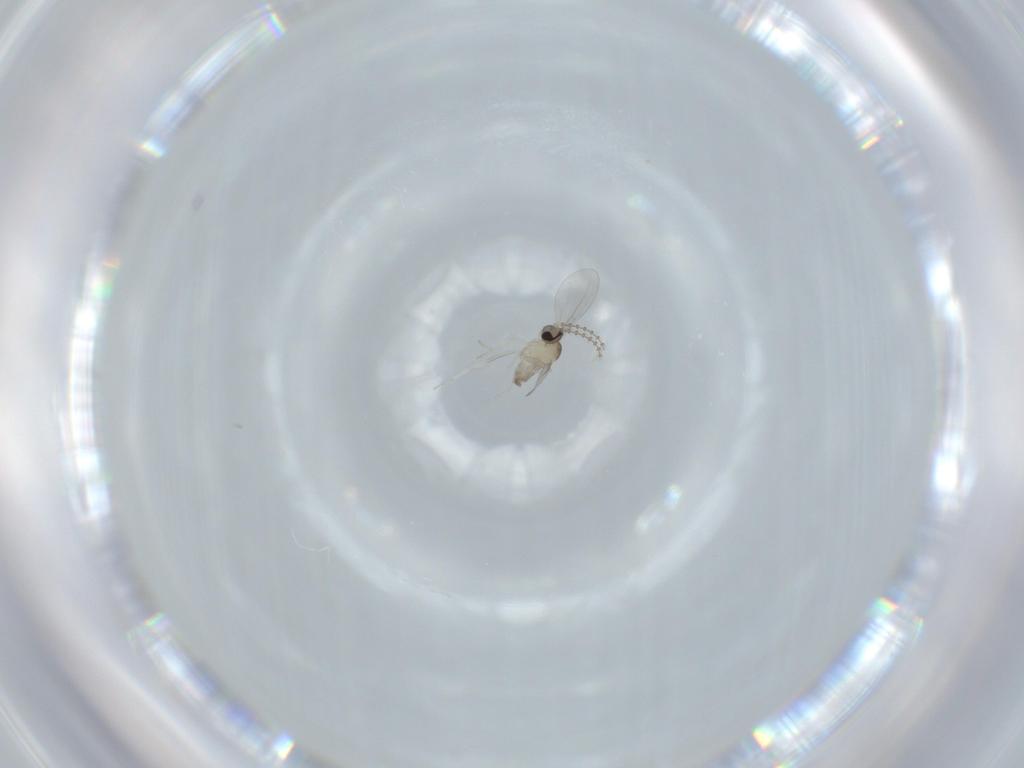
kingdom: Animalia
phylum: Arthropoda
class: Insecta
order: Diptera
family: Cecidomyiidae
